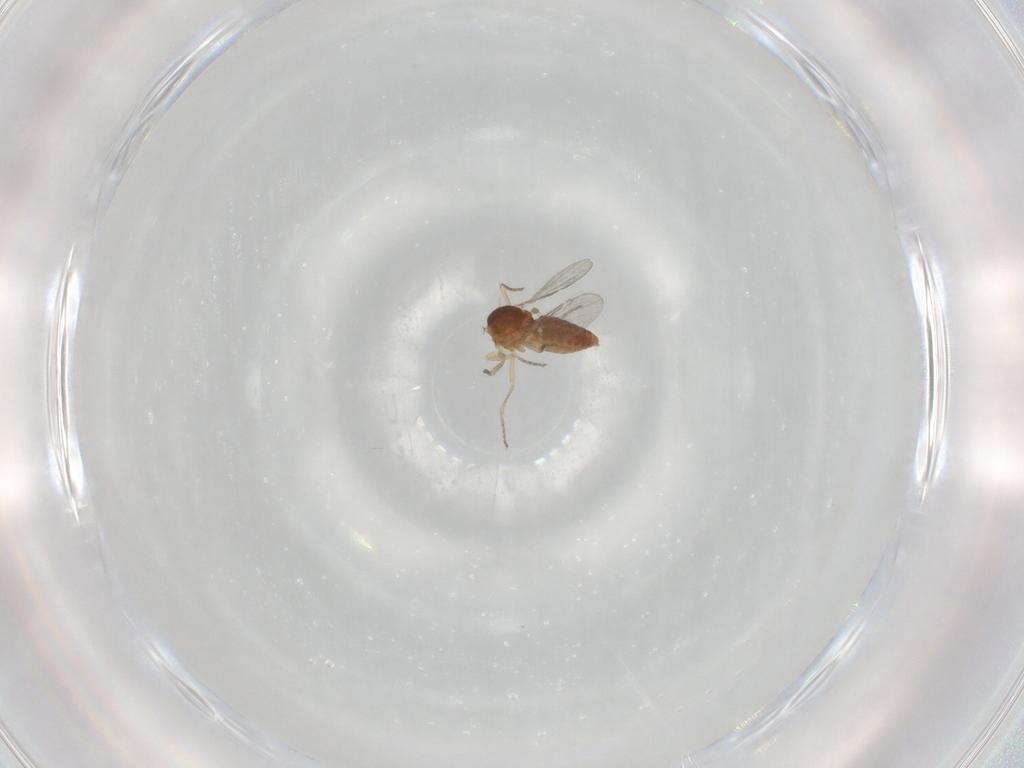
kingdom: Animalia
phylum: Arthropoda
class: Insecta
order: Diptera
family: Ceratopogonidae
